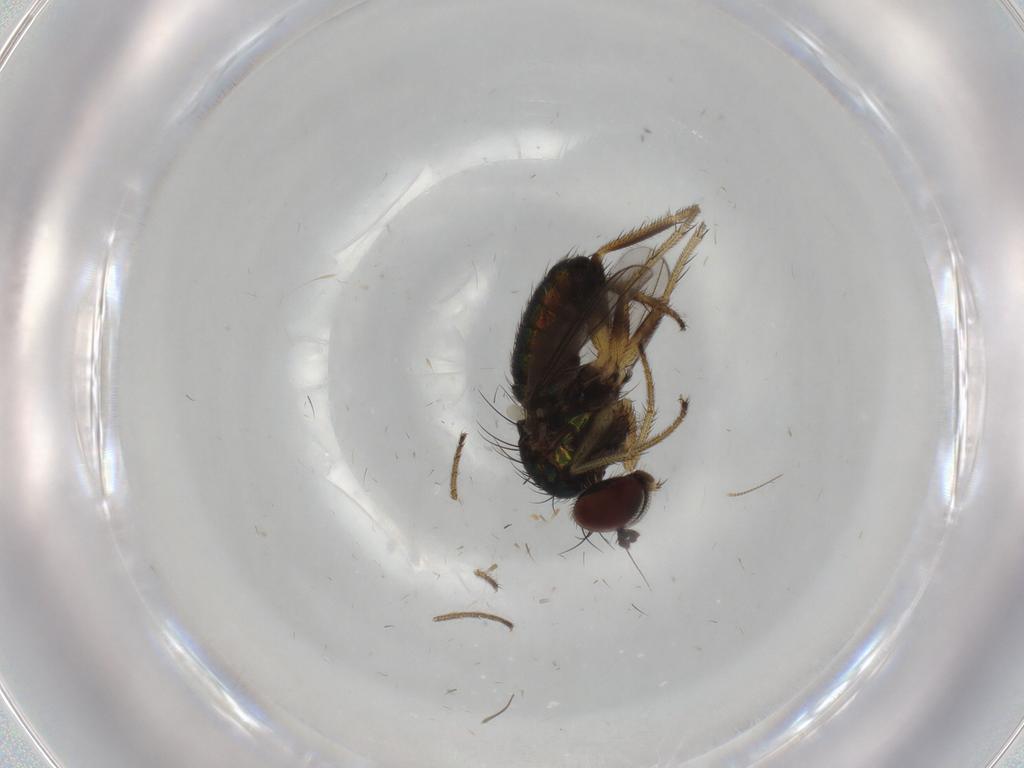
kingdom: Animalia
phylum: Arthropoda
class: Insecta
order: Diptera
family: Dolichopodidae
